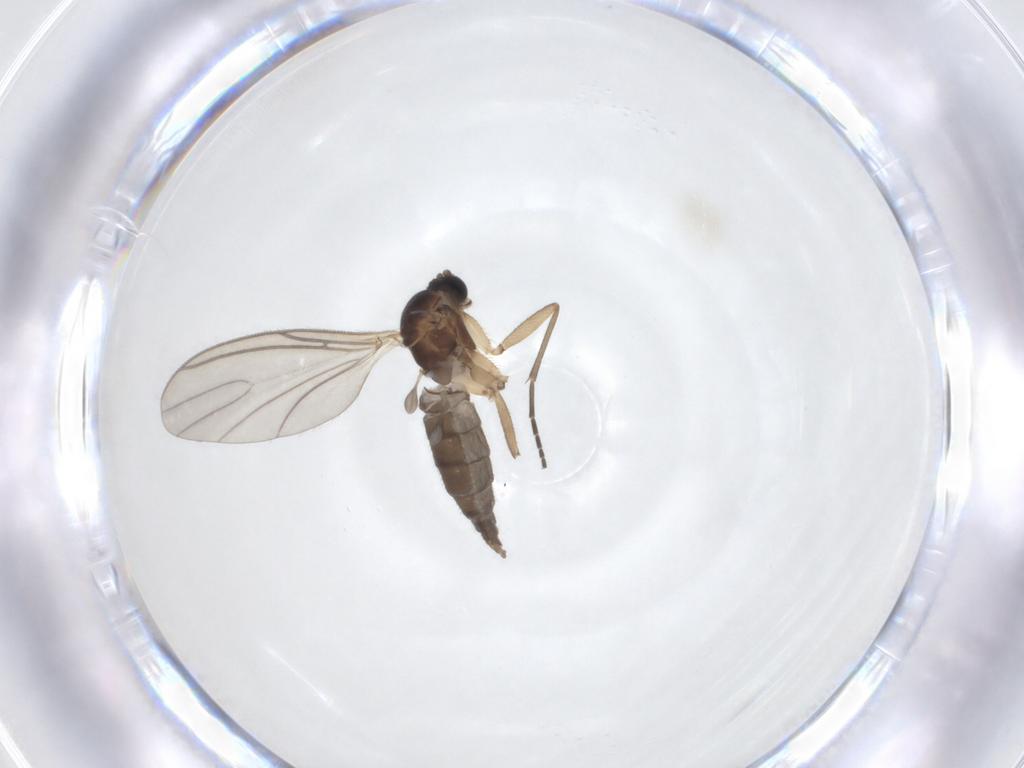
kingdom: Animalia
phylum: Arthropoda
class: Insecta
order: Diptera
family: Sciaridae
